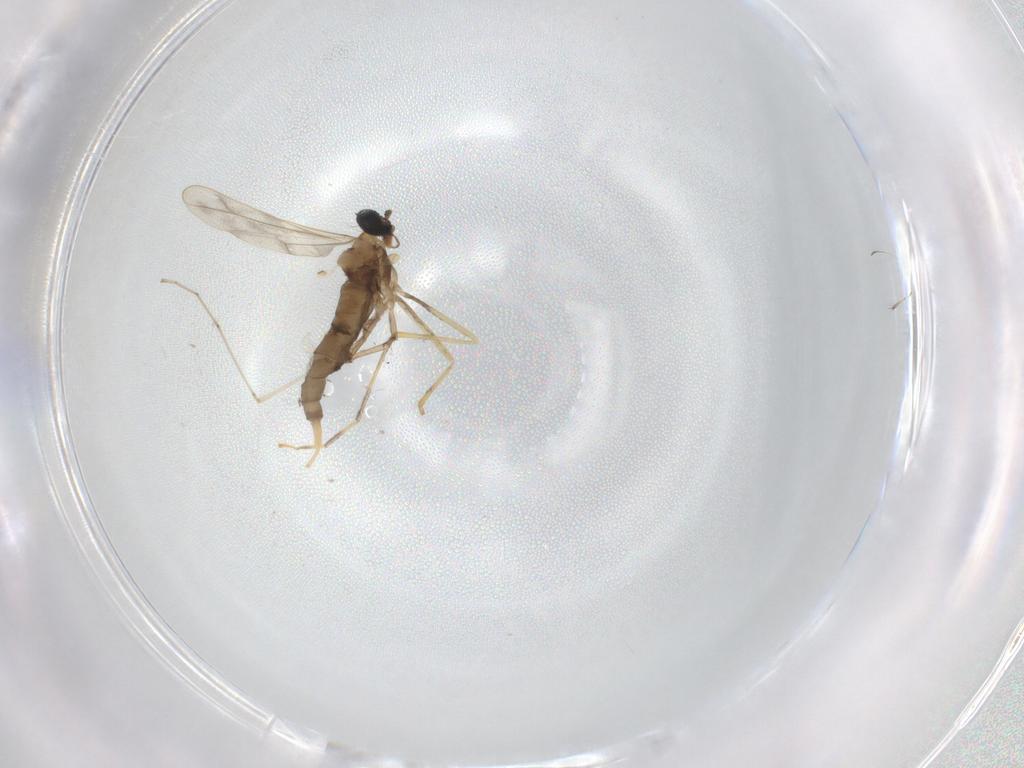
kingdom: Animalia
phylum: Arthropoda
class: Insecta
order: Diptera
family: Cecidomyiidae
